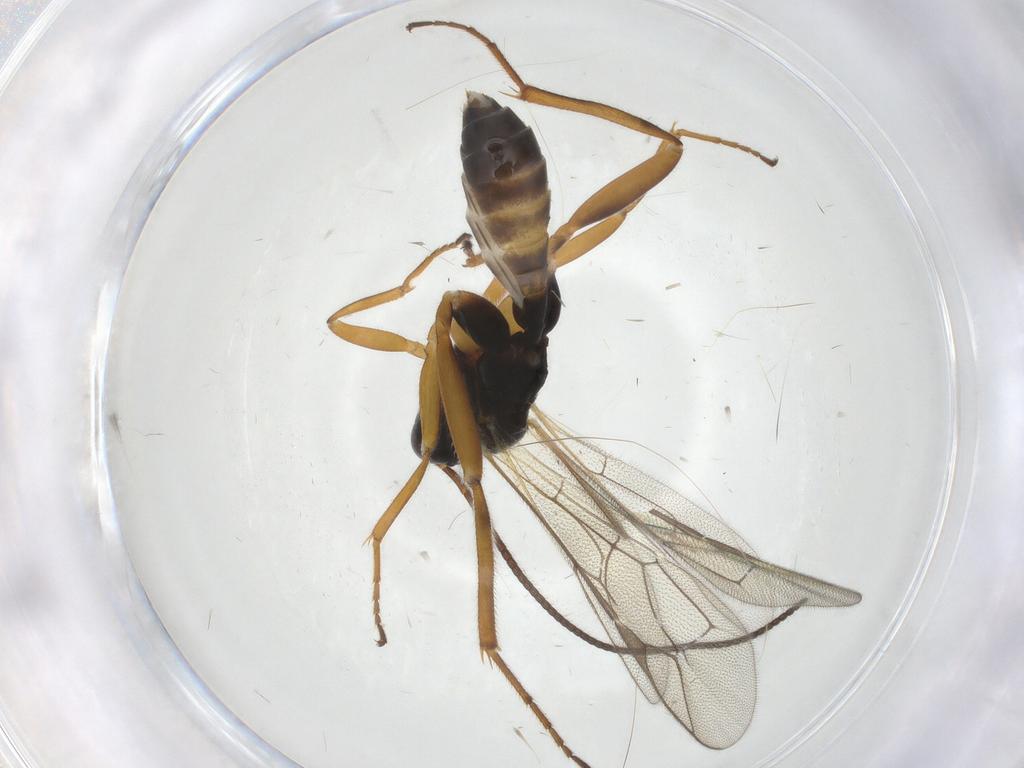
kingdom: Animalia
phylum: Arthropoda
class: Insecta
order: Hymenoptera
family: Ichneumonidae
